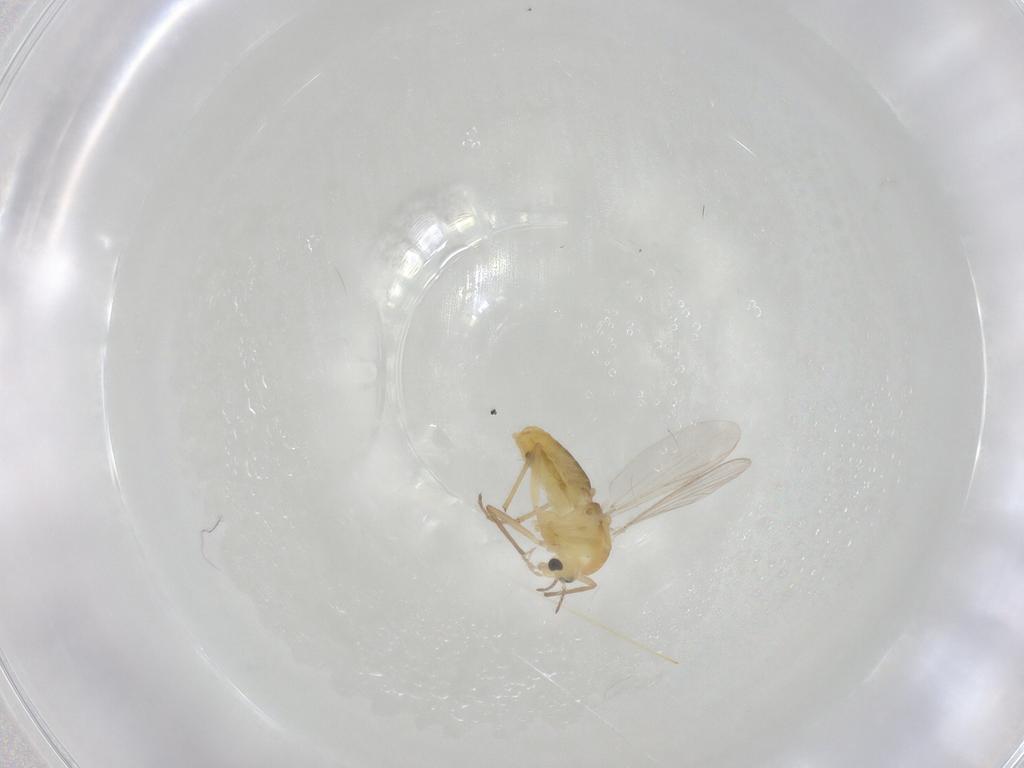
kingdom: Animalia
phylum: Arthropoda
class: Insecta
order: Diptera
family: Chironomidae
